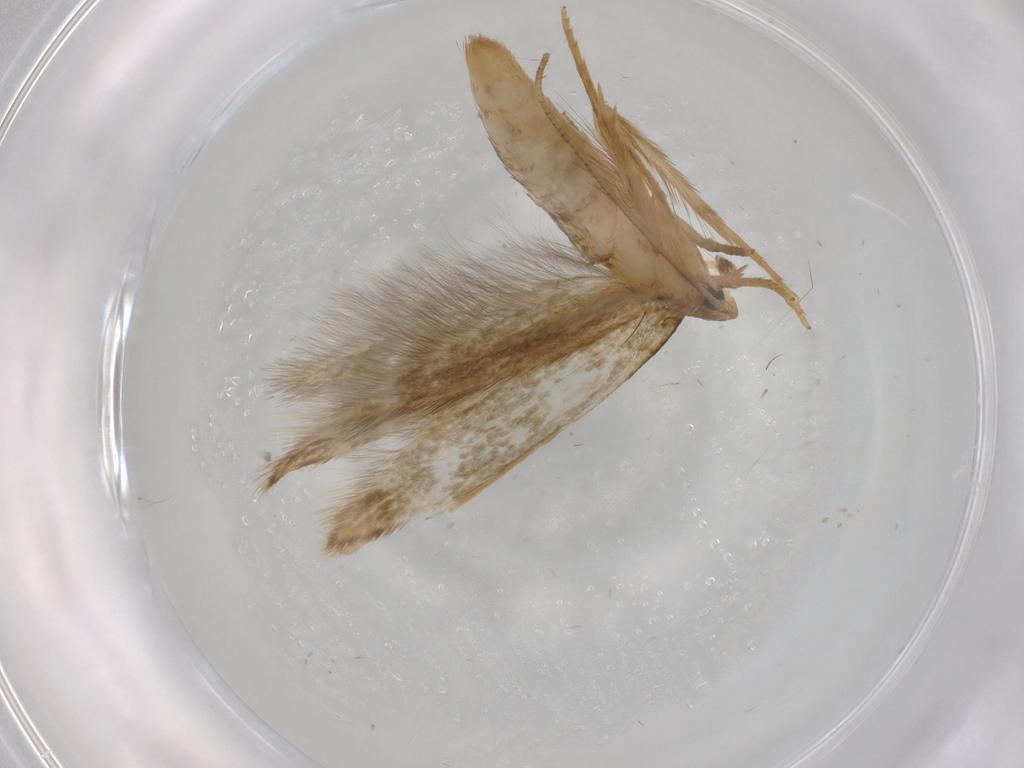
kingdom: Animalia
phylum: Arthropoda
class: Insecta
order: Lepidoptera
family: Tineidae
